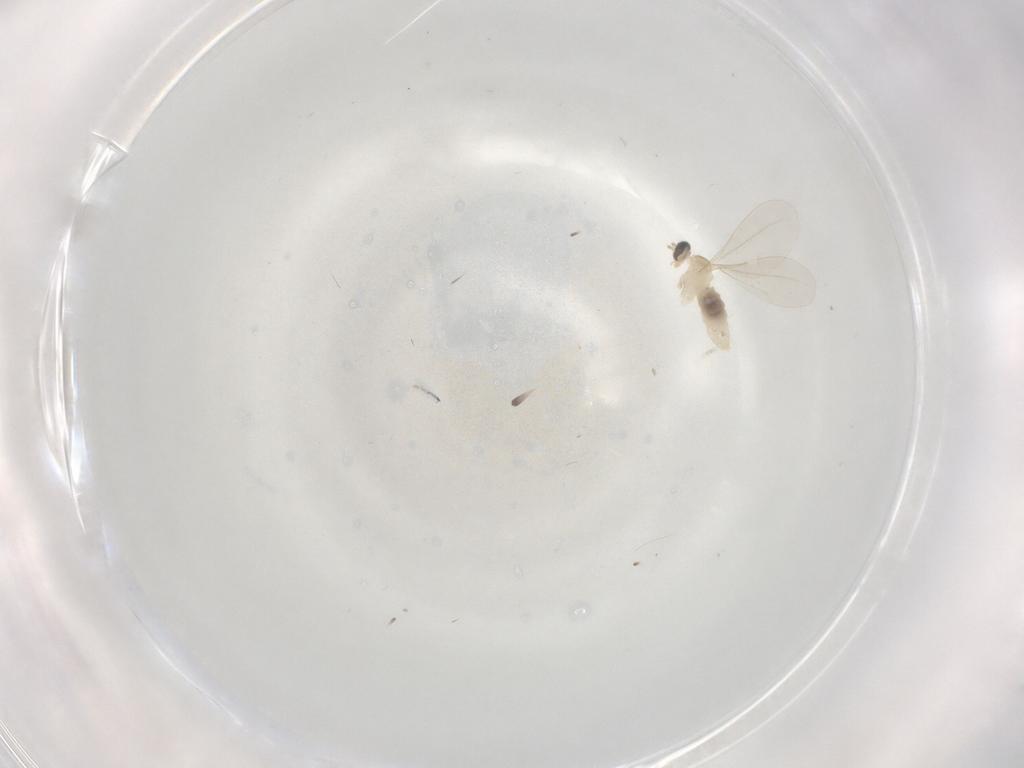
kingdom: Animalia
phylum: Arthropoda
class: Insecta
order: Diptera
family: Cecidomyiidae
